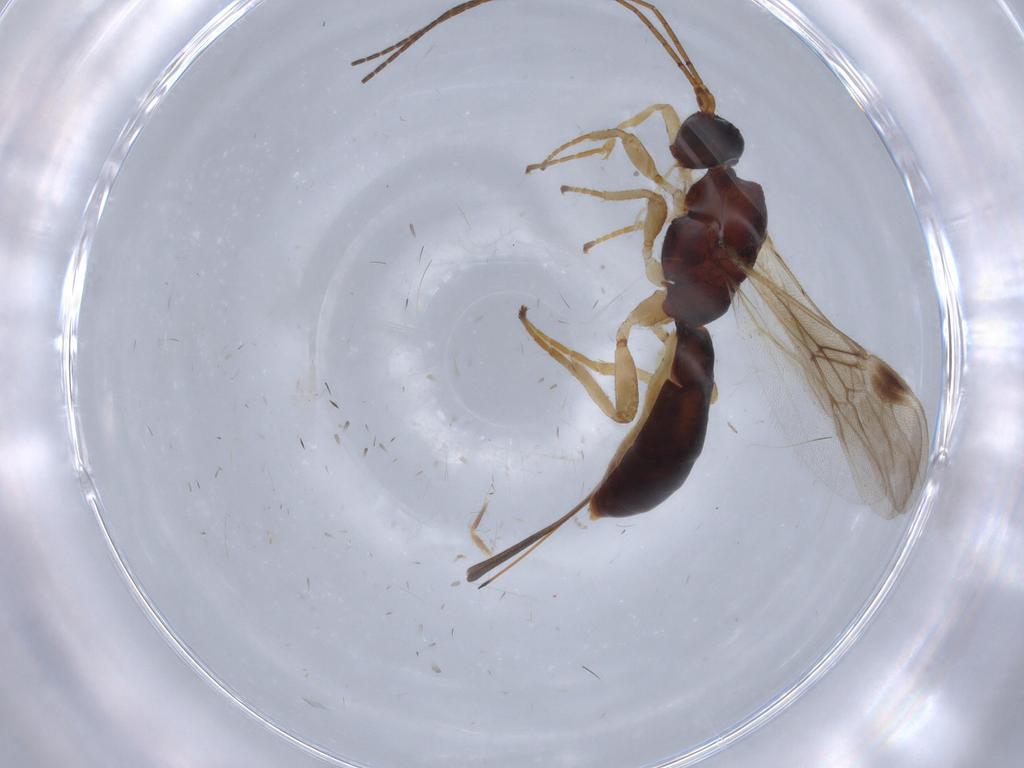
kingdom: Animalia
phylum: Arthropoda
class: Insecta
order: Hymenoptera
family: Braconidae
